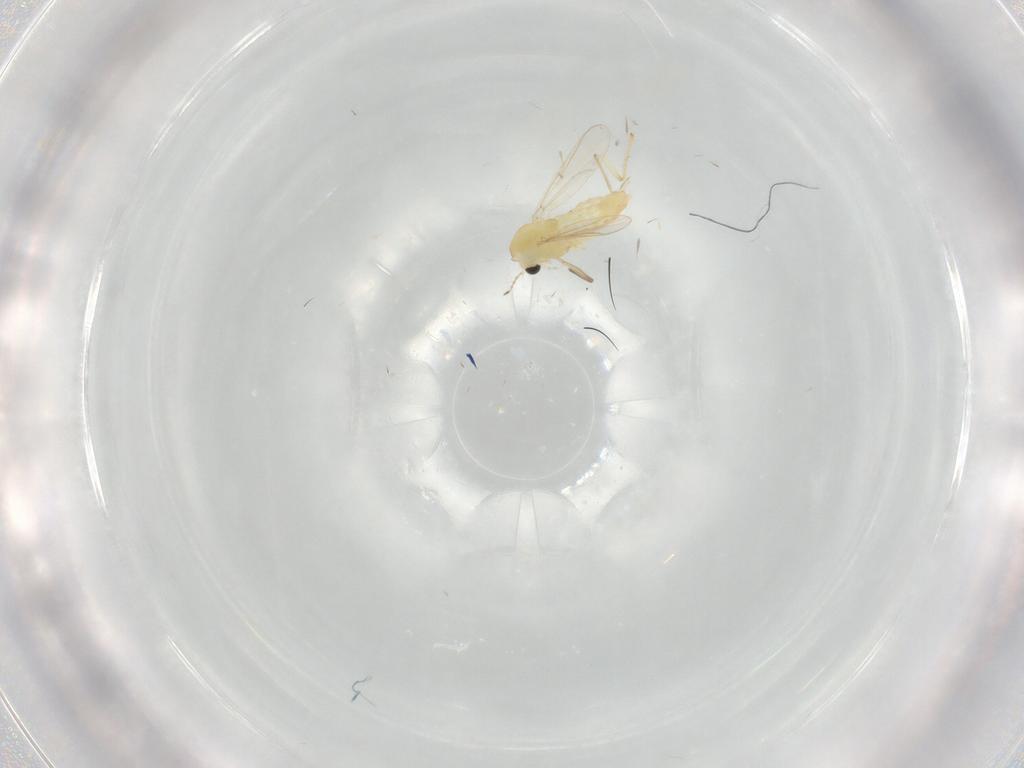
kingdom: Animalia
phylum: Arthropoda
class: Insecta
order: Diptera
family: Chironomidae
